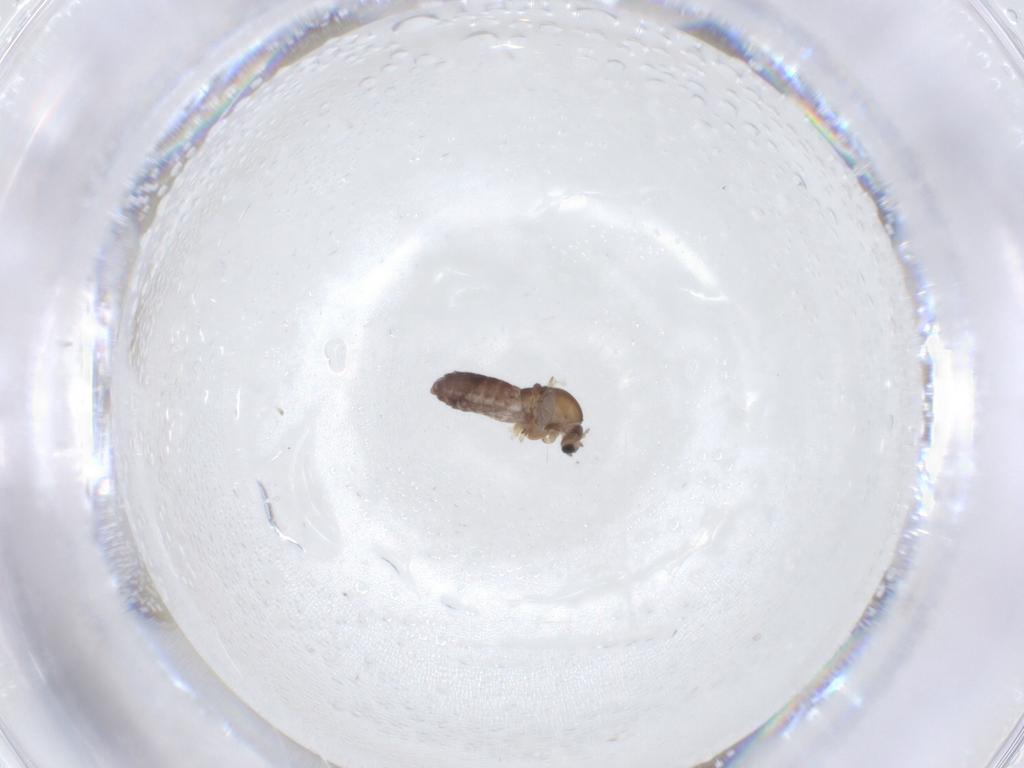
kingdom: Animalia
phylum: Arthropoda
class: Insecta
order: Diptera
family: Chironomidae
